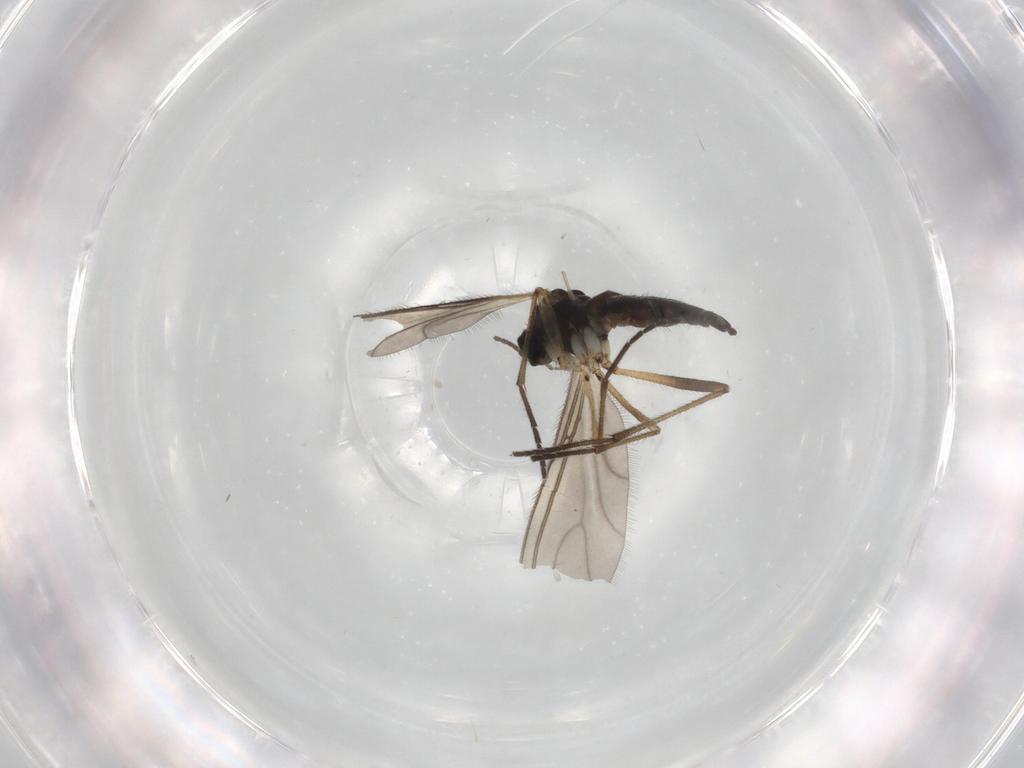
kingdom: Animalia
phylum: Arthropoda
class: Insecta
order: Diptera
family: Sciaridae
